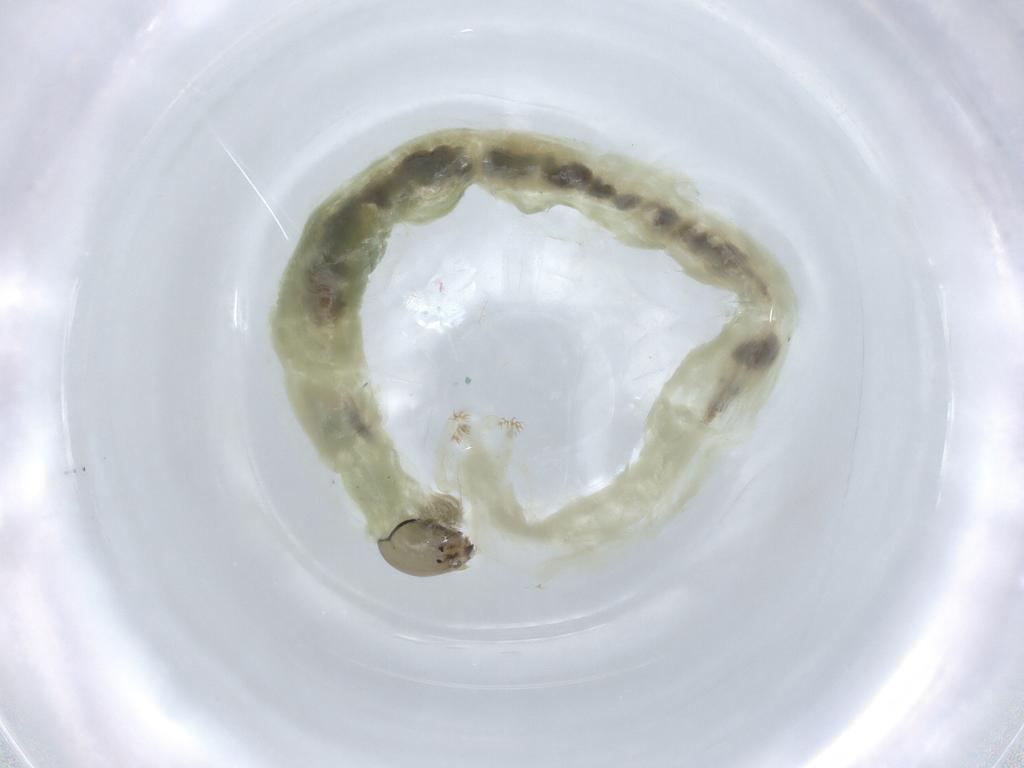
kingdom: Animalia
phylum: Arthropoda
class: Insecta
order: Diptera
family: Chironomidae
